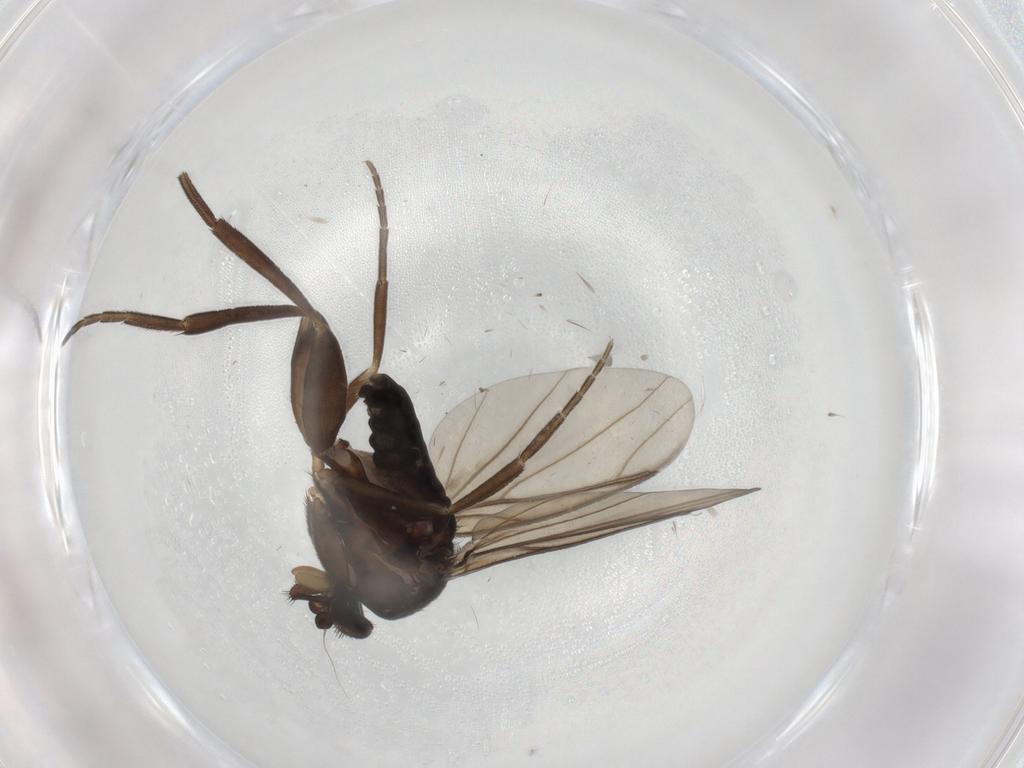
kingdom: Animalia
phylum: Arthropoda
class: Insecta
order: Diptera
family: Phoridae
